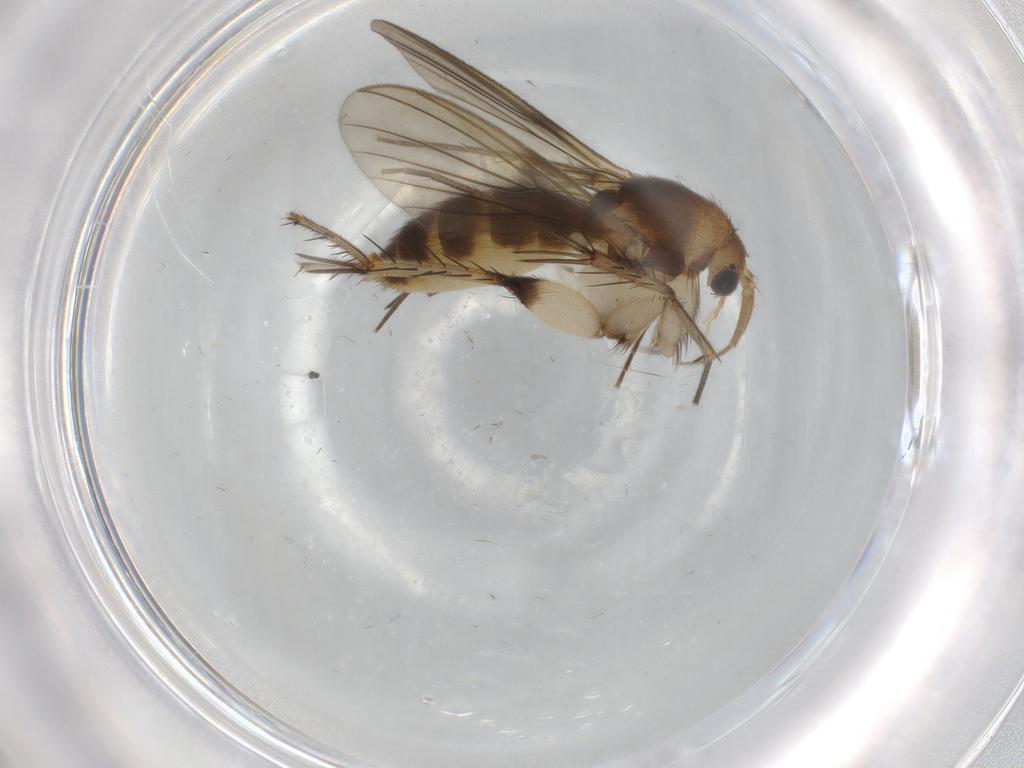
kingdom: Animalia
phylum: Arthropoda
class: Insecta
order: Diptera
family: Mycetophilidae
